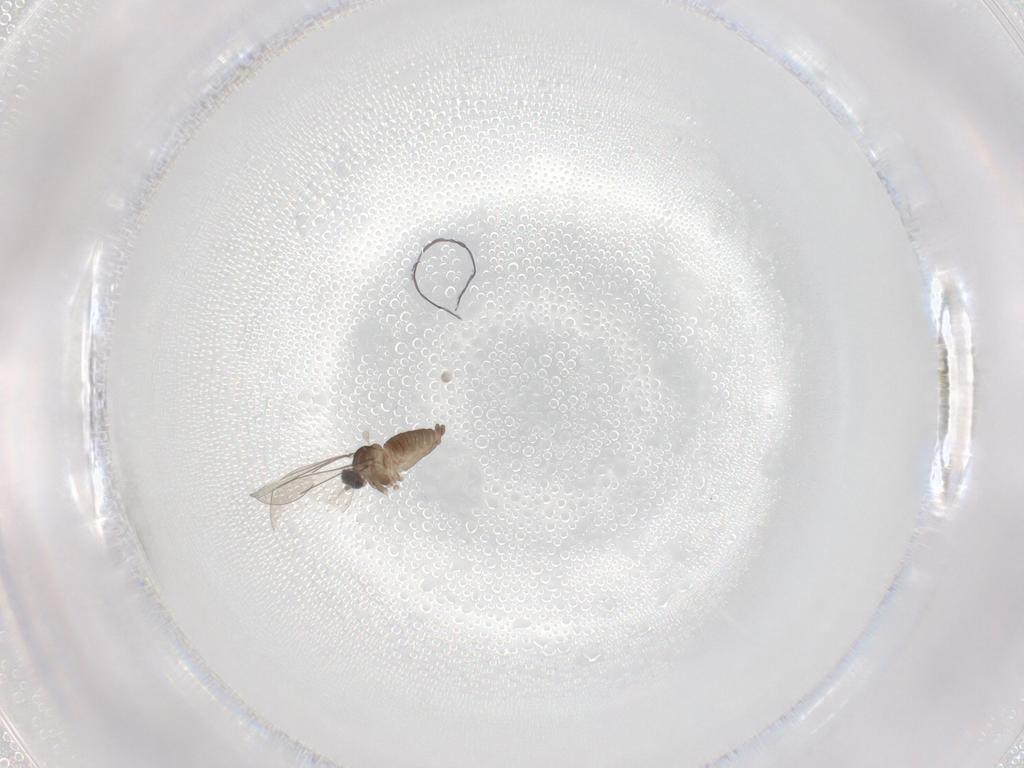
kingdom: Animalia
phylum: Arthropoda
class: Insecta
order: Diptera
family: Cecidomyiidae
